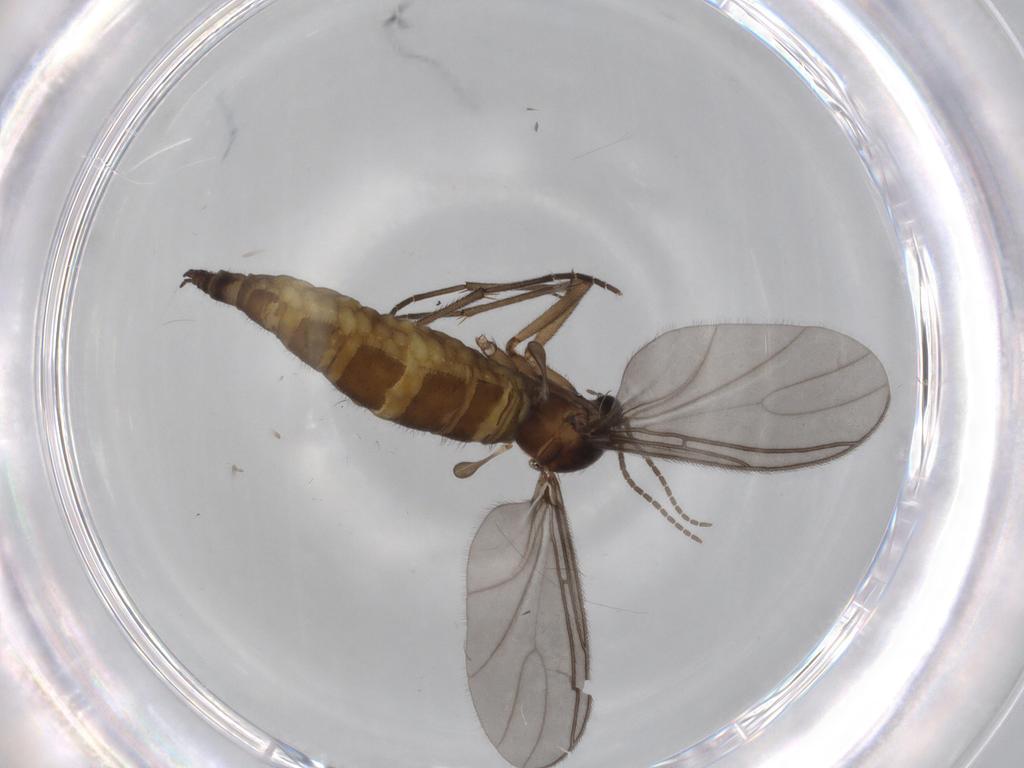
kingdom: Animalia
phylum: Arthropoda
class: Insecta
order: Diptera
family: Sciaridae
